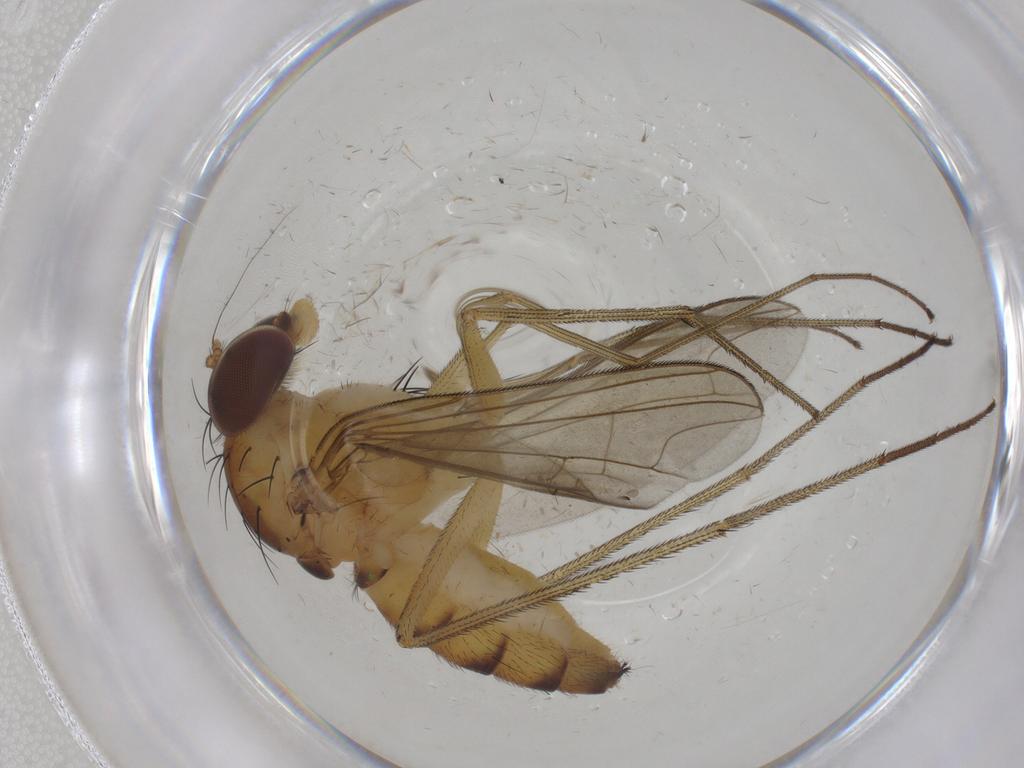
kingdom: Animalia
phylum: Arthropoda
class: Insecta
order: Diptera
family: Dolichopodidae
